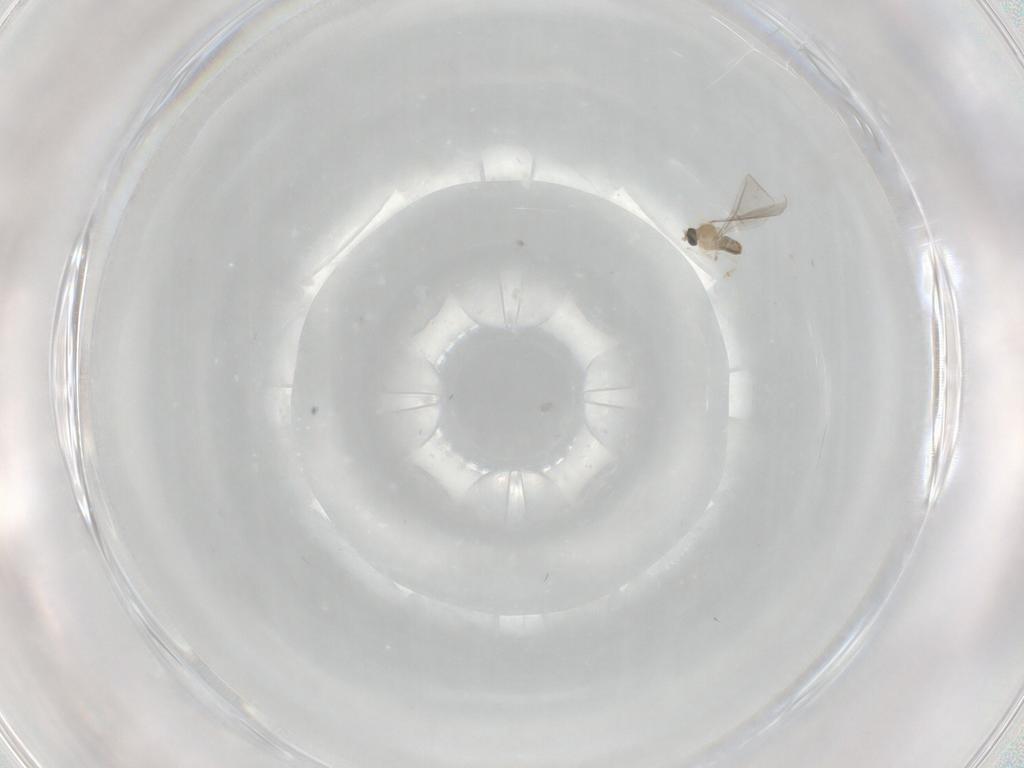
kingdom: Animalia
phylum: Arthropoda
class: Insecta
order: Diptera
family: Cecidomyiidae
